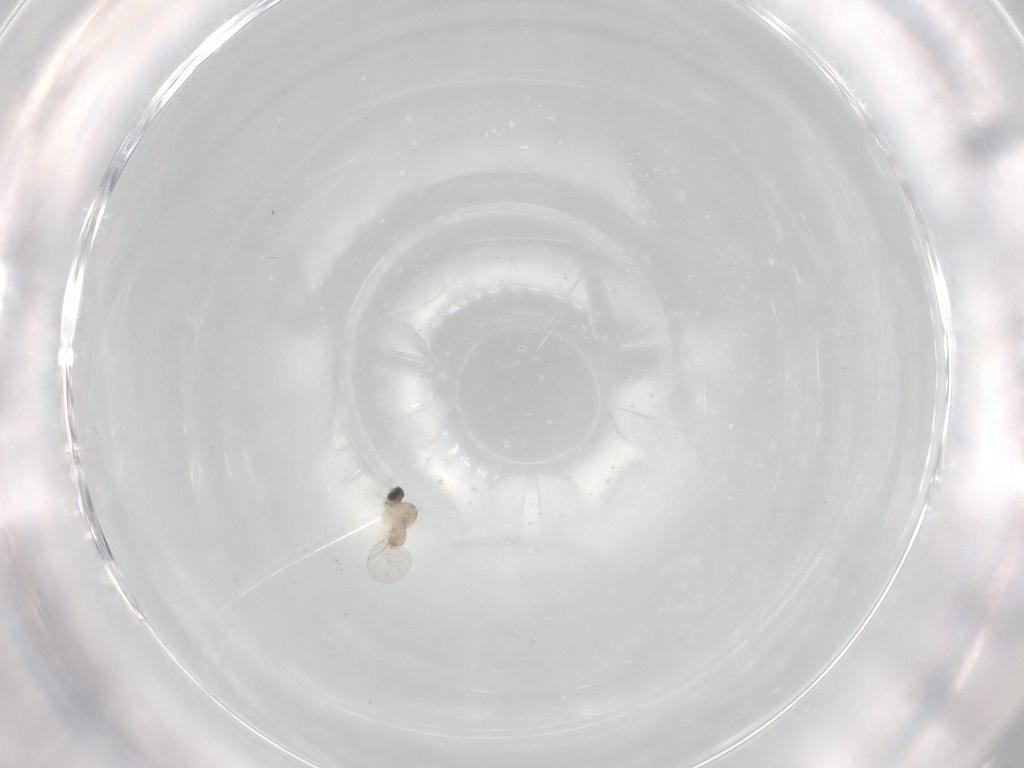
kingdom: Animalia
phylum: Arthropoda
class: Insecta
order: Diptera
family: Cecidomyiidae
